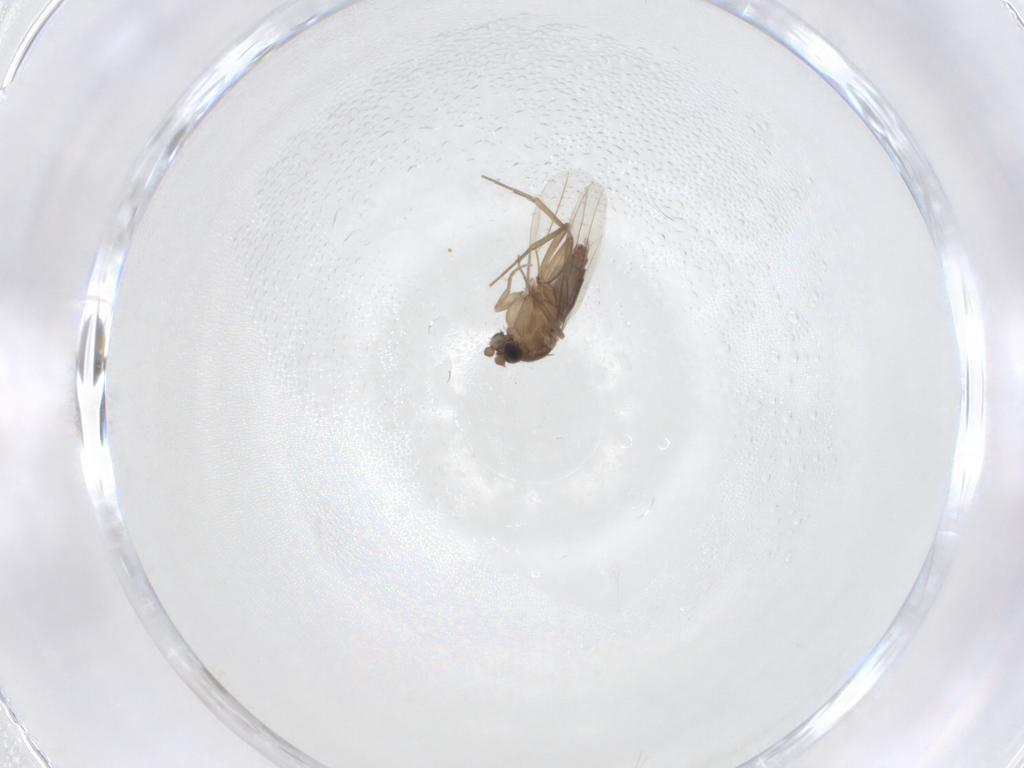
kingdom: Animalia
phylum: Arthropoda
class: Insecta
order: Diptera
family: Phoridae
